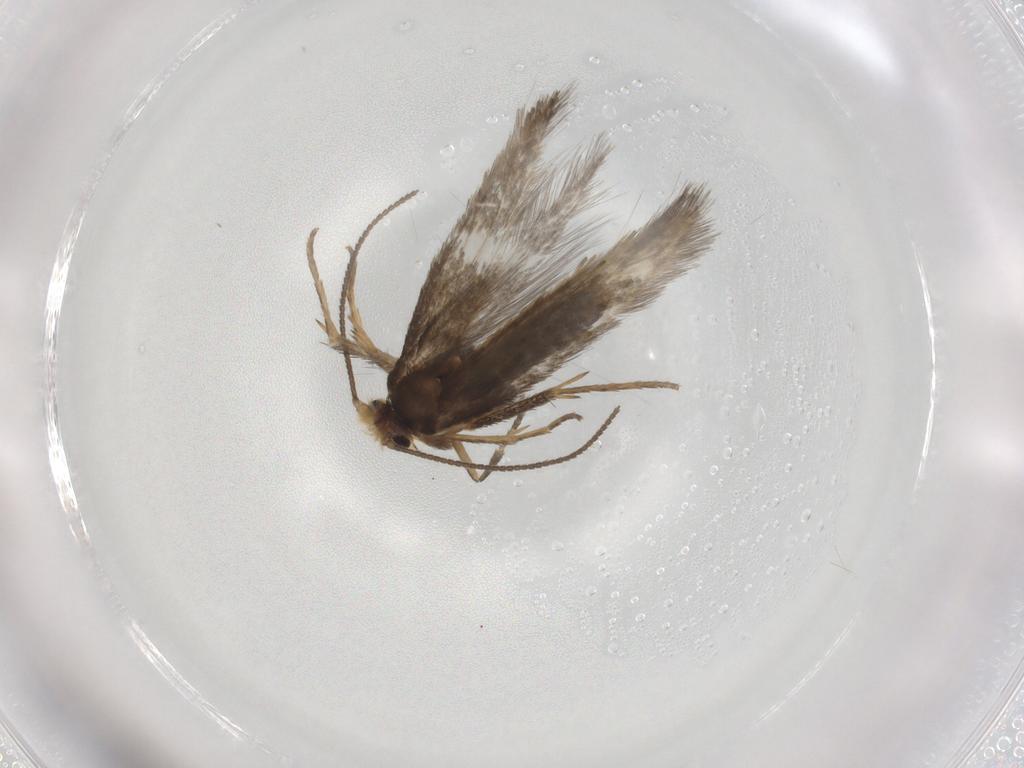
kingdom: Animalia
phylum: Arthropoda
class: Insecta
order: Lepidoptera
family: Nepticulidae
